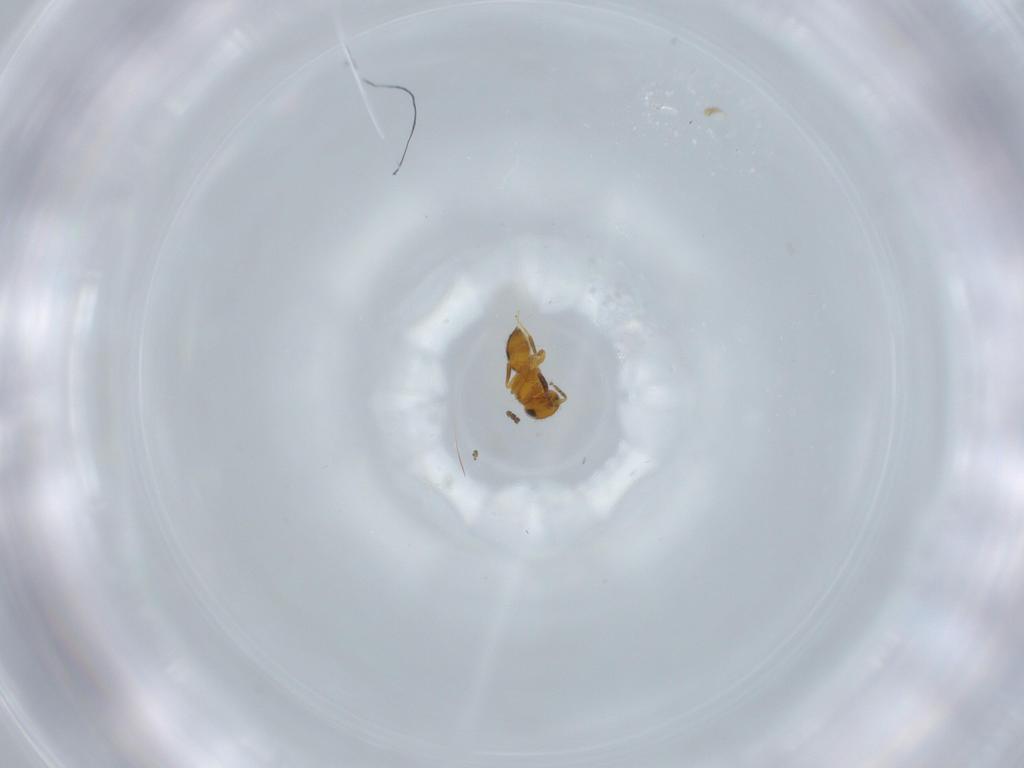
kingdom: Animalia
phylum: Arthropoda
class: Insecta
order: Hymenoptera
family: Scelionidae
